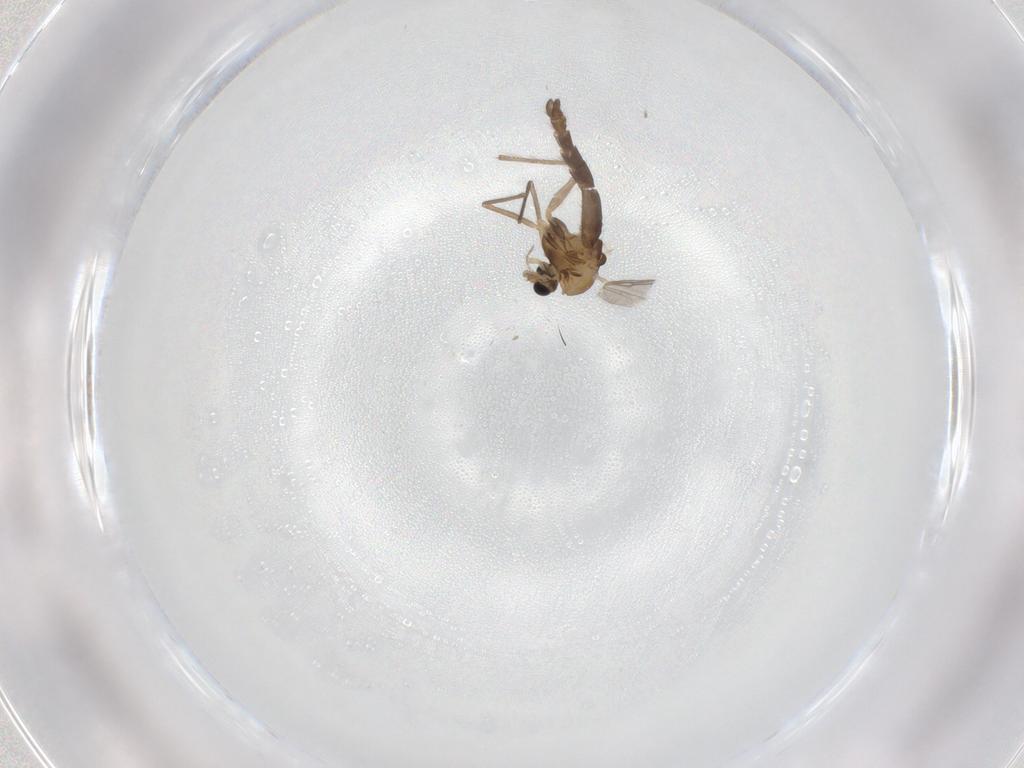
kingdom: Animalia
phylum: Arthropoda
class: Insecta
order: Diptera
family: Chironomidae
